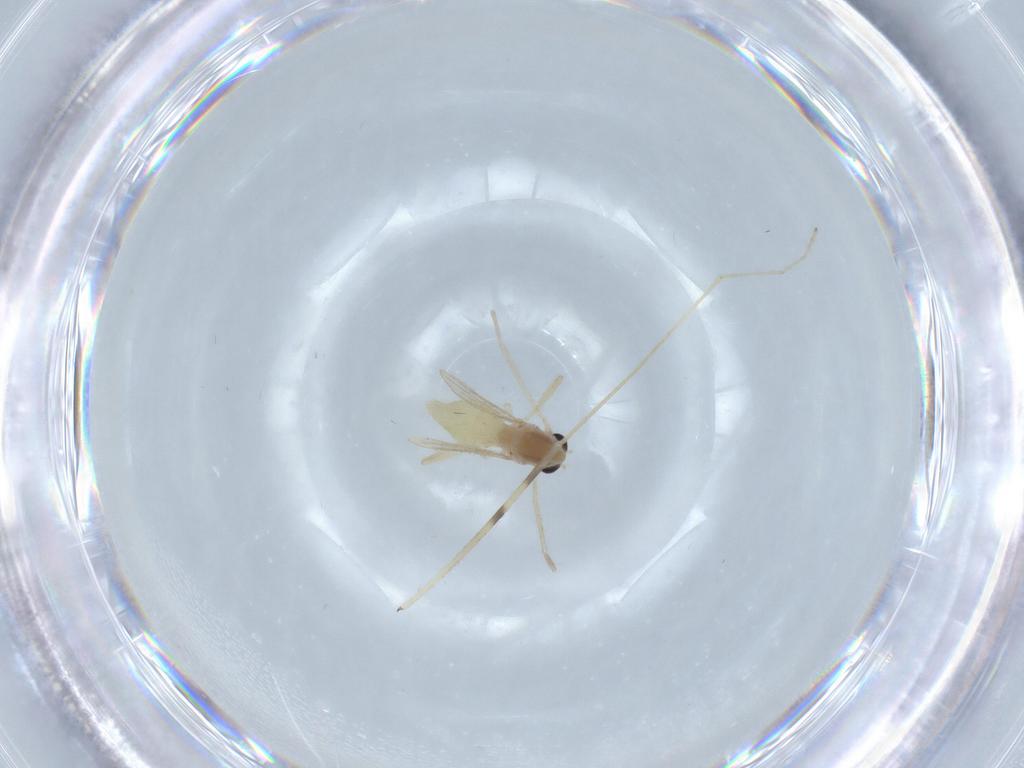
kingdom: Animalia
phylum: Arthropoda
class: Insecta
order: Diptera
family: Chironomidae
